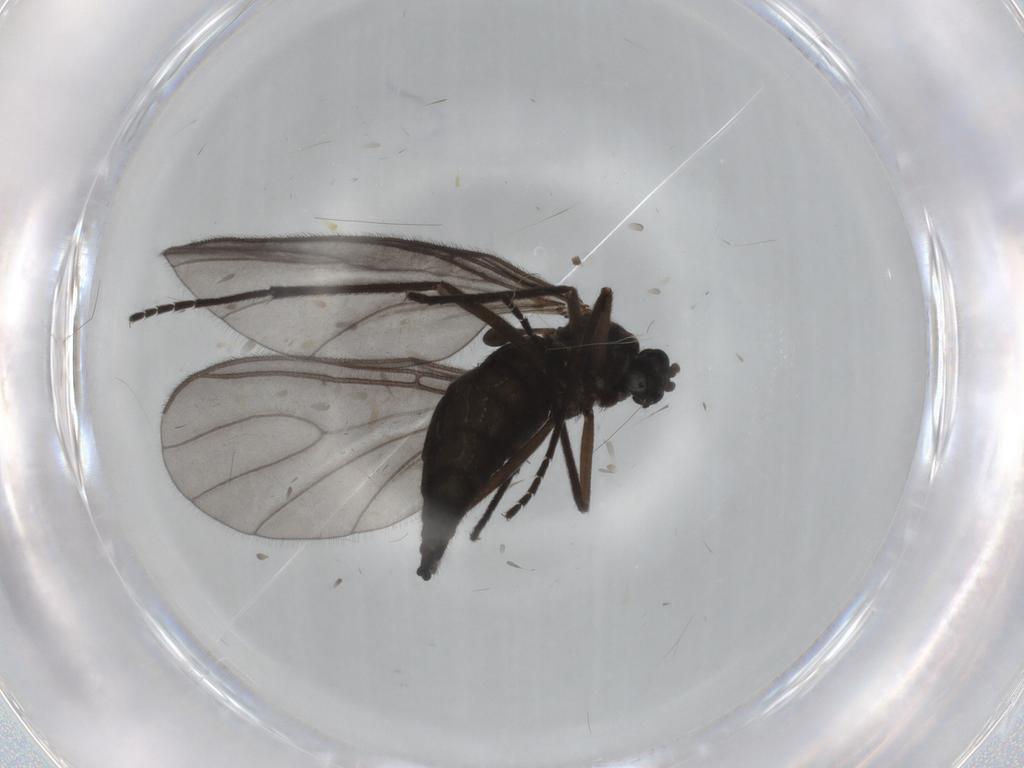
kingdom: Animalia
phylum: Arthropoda
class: Insecta
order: Diptera
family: Sciaridae
